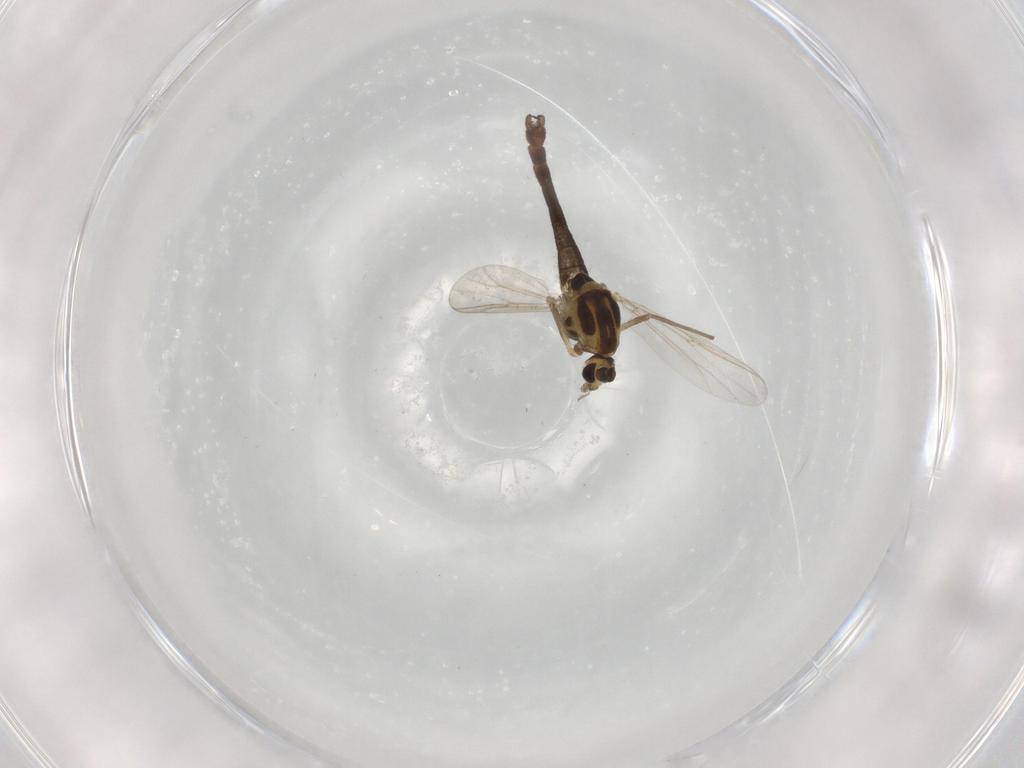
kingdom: Animalia
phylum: Arthropoda
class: Insecta
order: Diptera
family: Chironomidae
